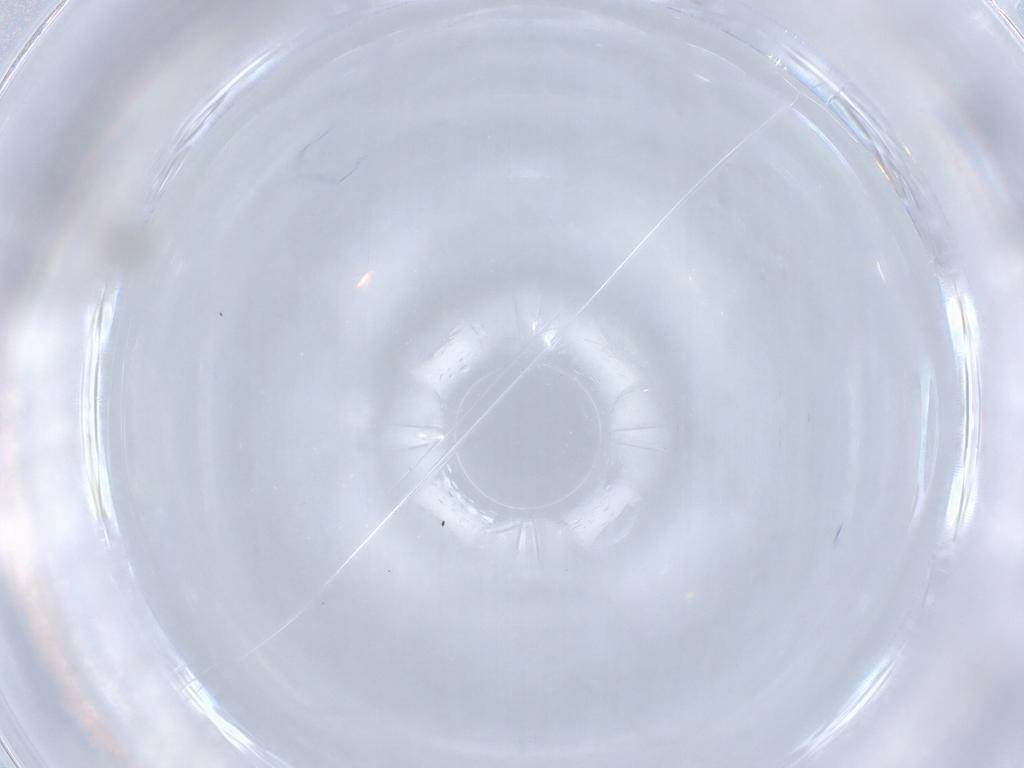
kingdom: Animalia
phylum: Arthropoda
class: Insecta
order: Diptera
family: Cecidomyiidae
